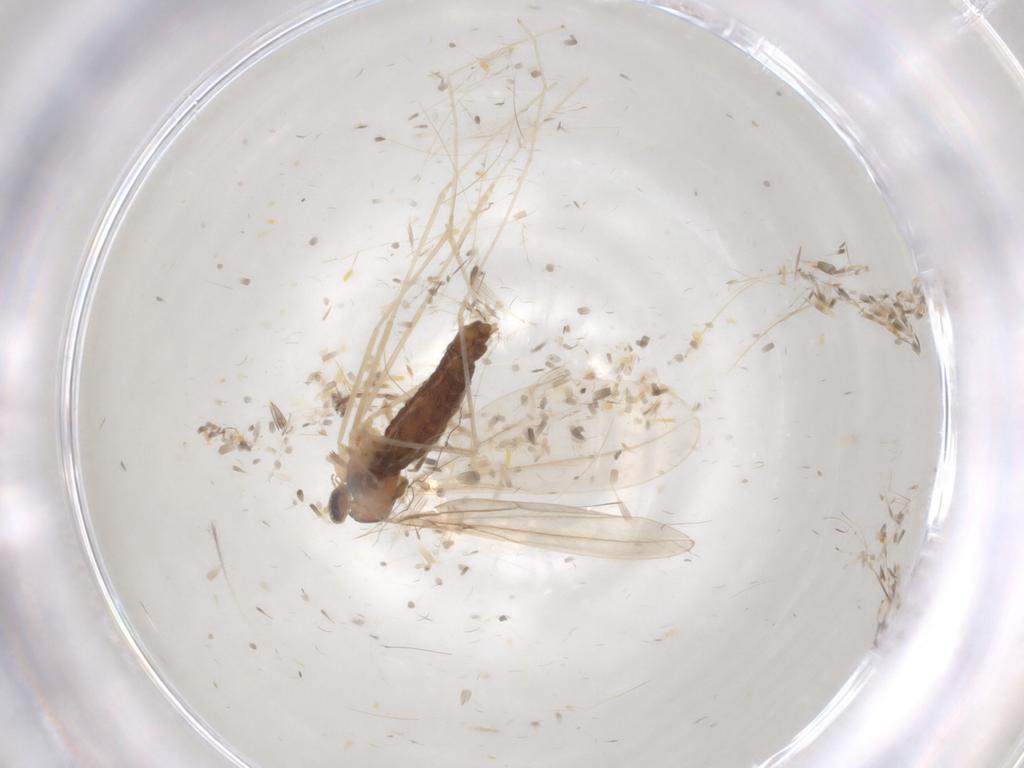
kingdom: Animalia
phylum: Arthropoda
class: Insecta
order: Diptera
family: Cecidomyiidae
